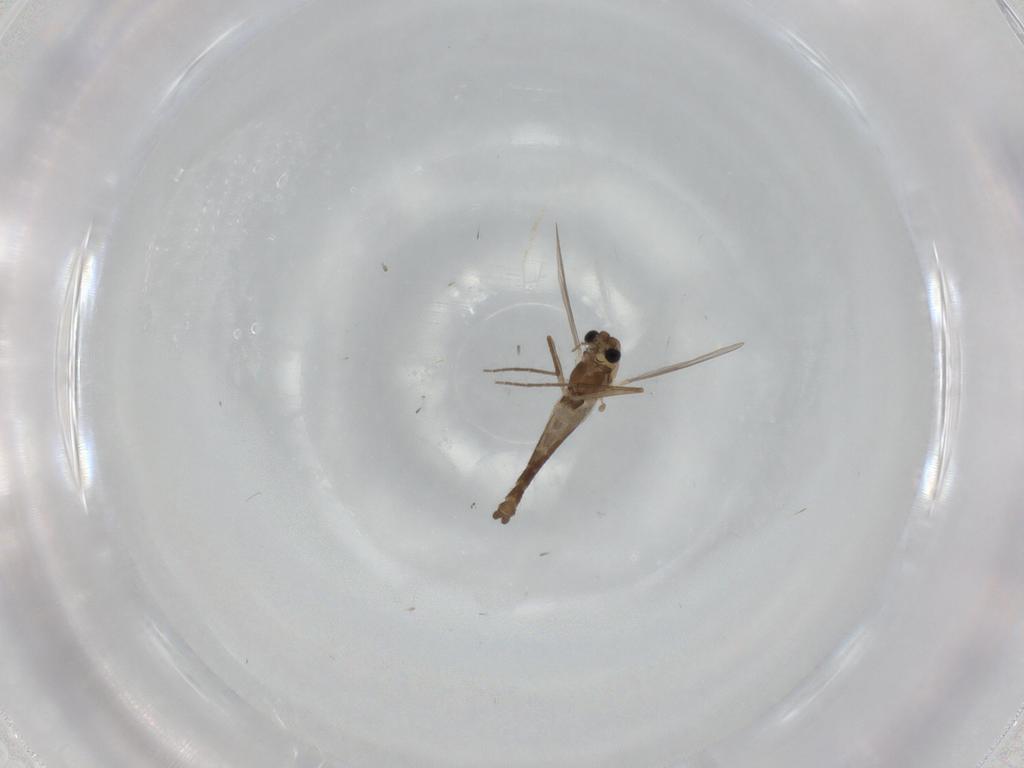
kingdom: Animalia
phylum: Arthropoda
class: Insecta
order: Diptera
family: Chironomidae
